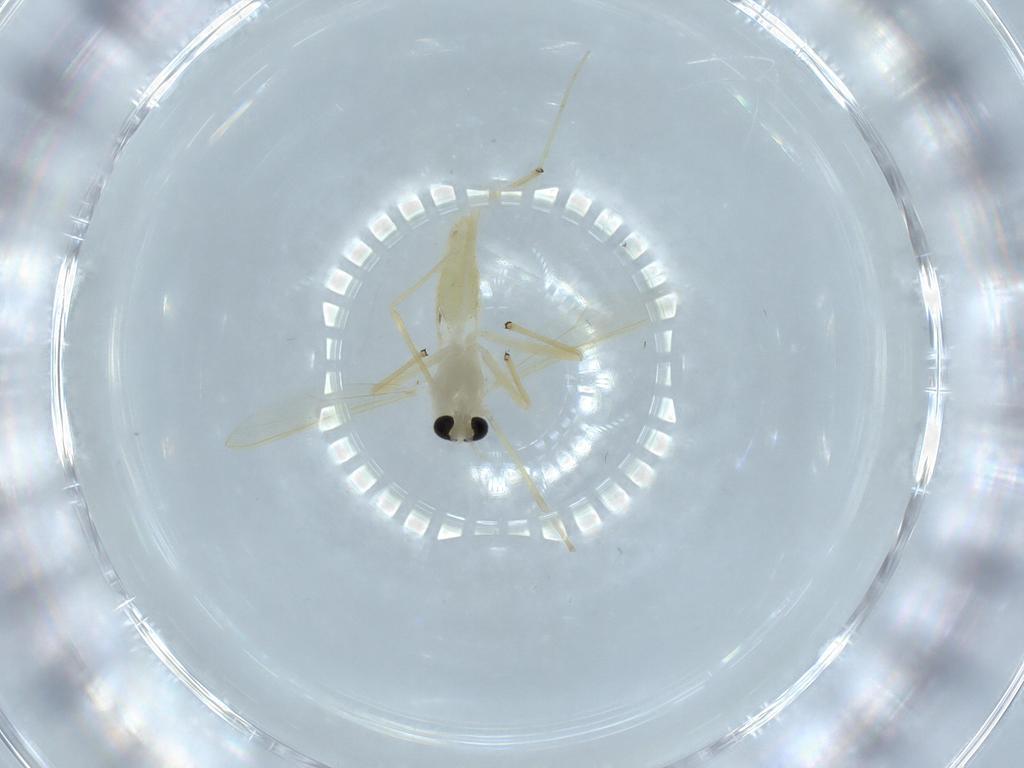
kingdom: Animalia
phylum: Arthropoda
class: Insecta
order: Diptera
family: Chironomidae
